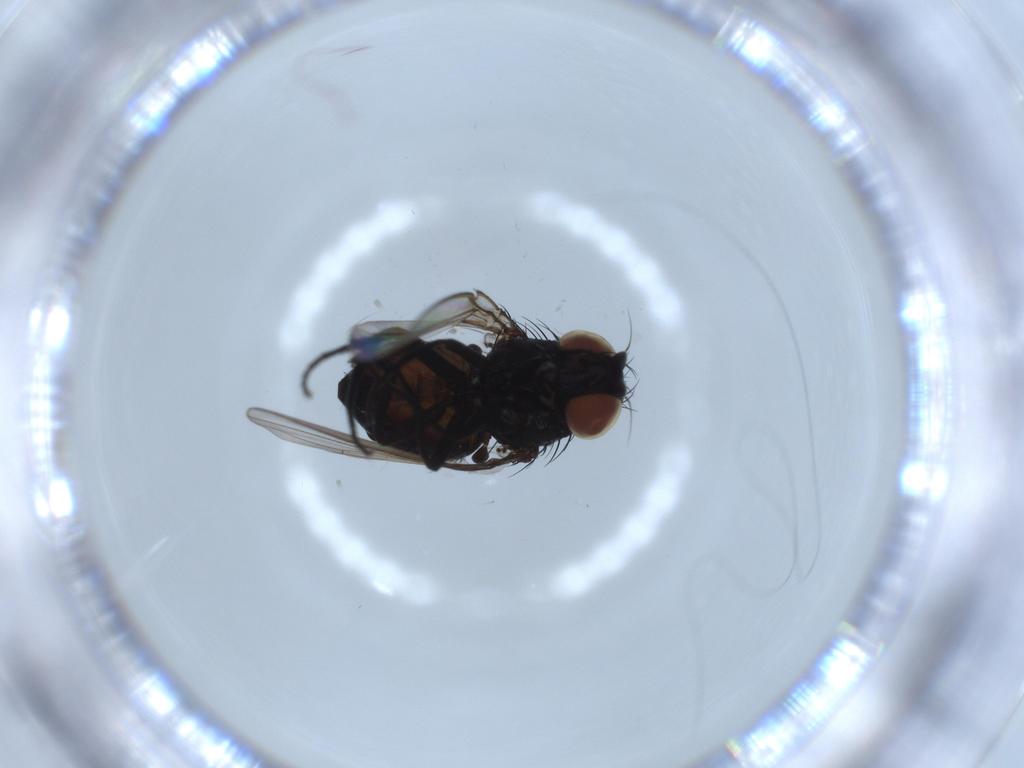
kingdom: Animalia
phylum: Arthropoda
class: Insecta
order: Diptera
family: Milichiidae
